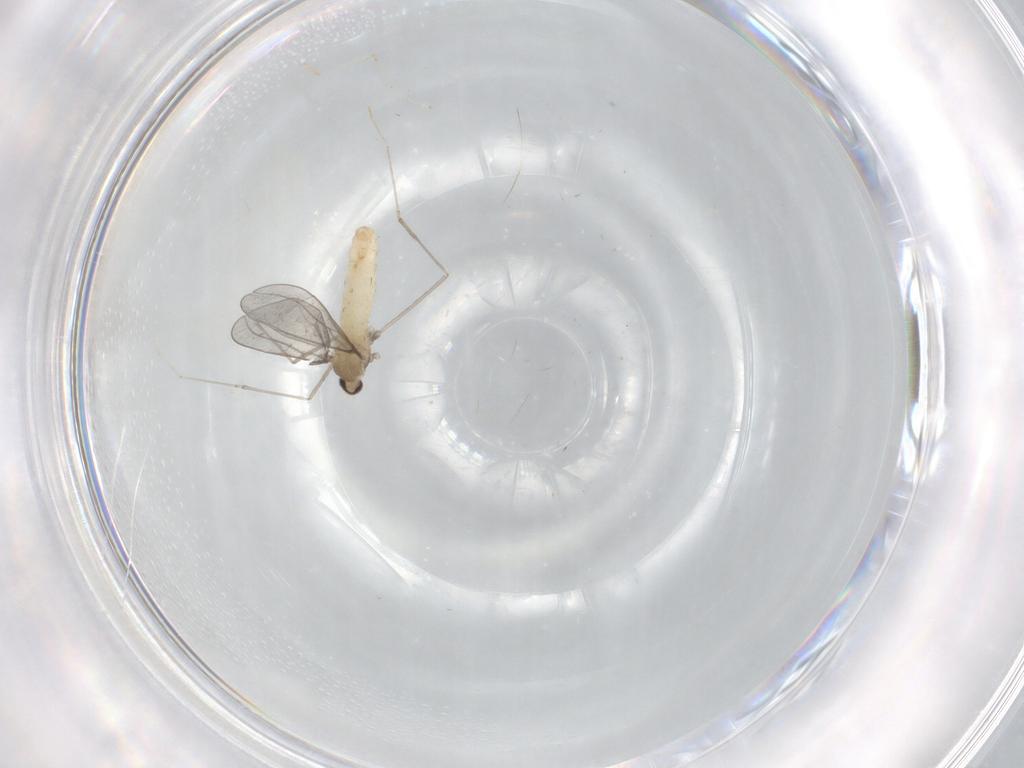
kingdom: Animalia
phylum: Arthropoda
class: Insecta
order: Diptera
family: Cecidomyiidae
